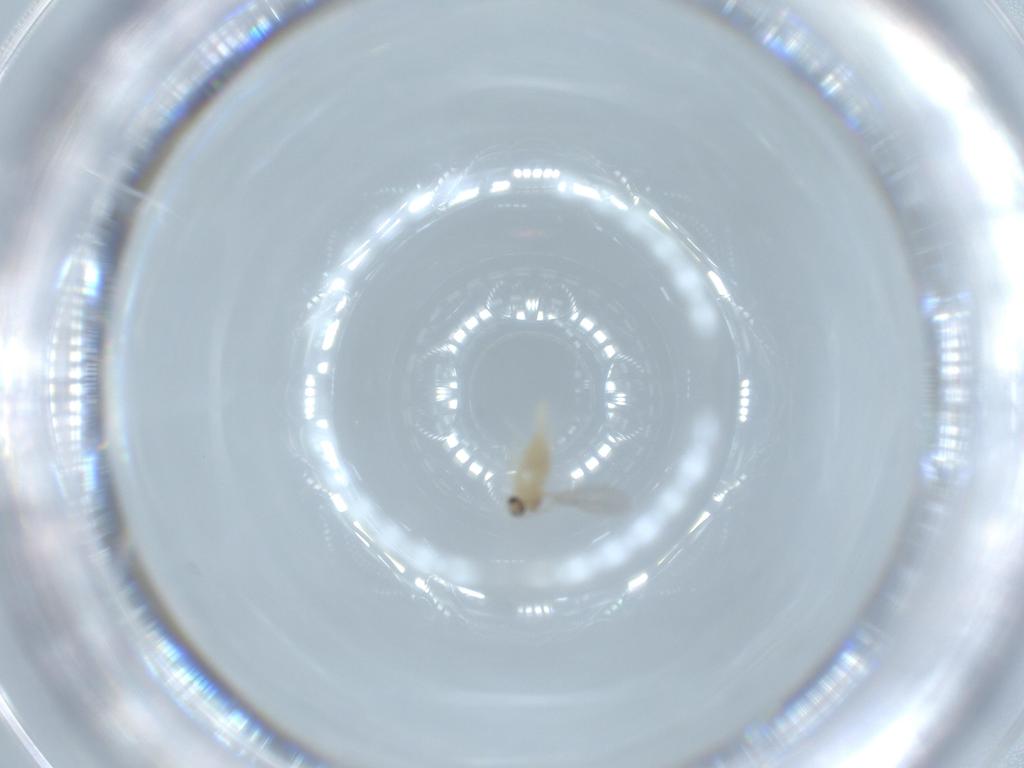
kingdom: Animalia
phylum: Arthropoda
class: Insecta
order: Diptera
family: Cecidomyiidae
